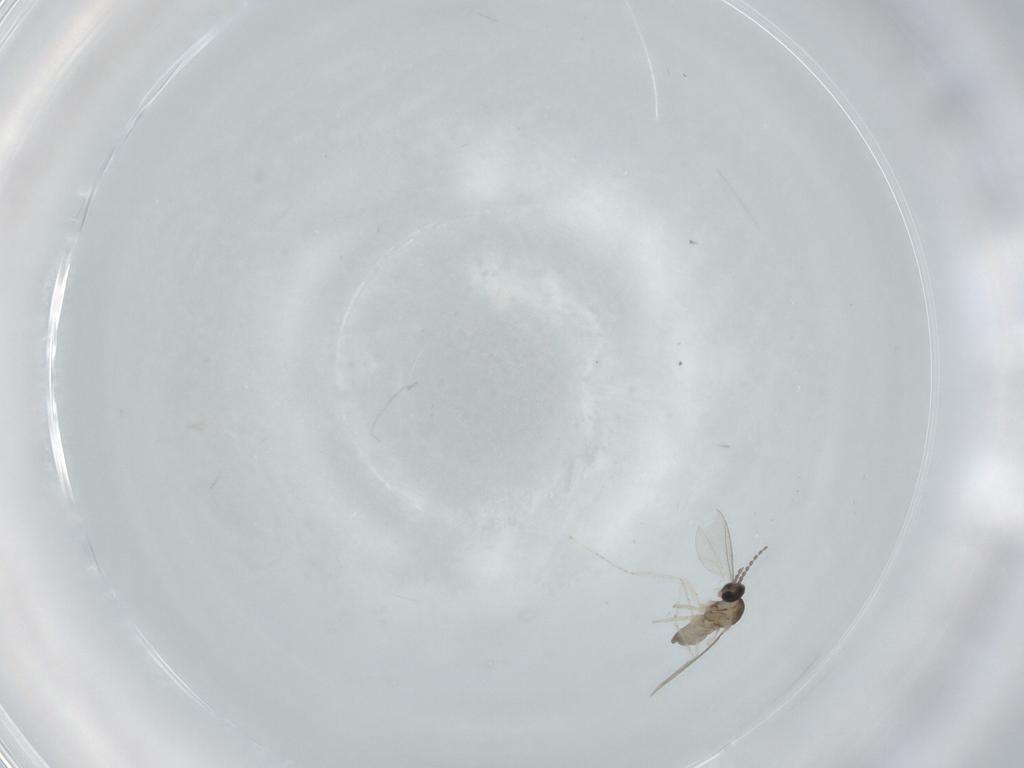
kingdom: Animalia
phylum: Arthropoda
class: Insecta
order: Diptera
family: Cecidomyiidae
